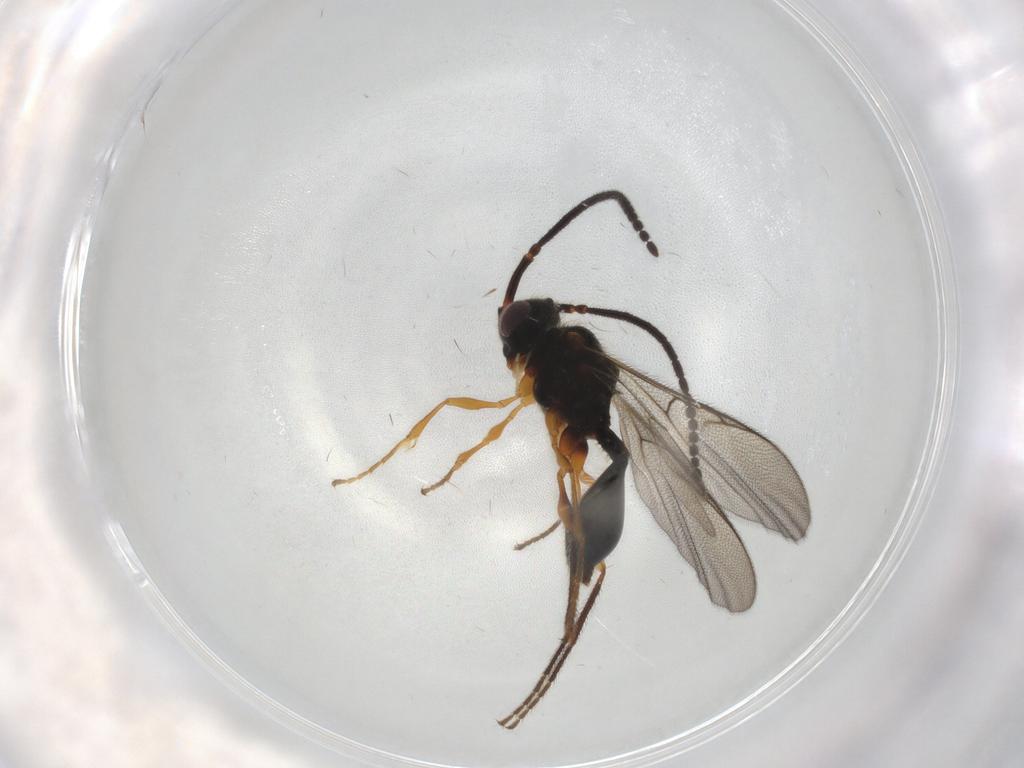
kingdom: Animalia
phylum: Arthropoda
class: Insecta
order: Hymenoptera
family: Diapriidae
